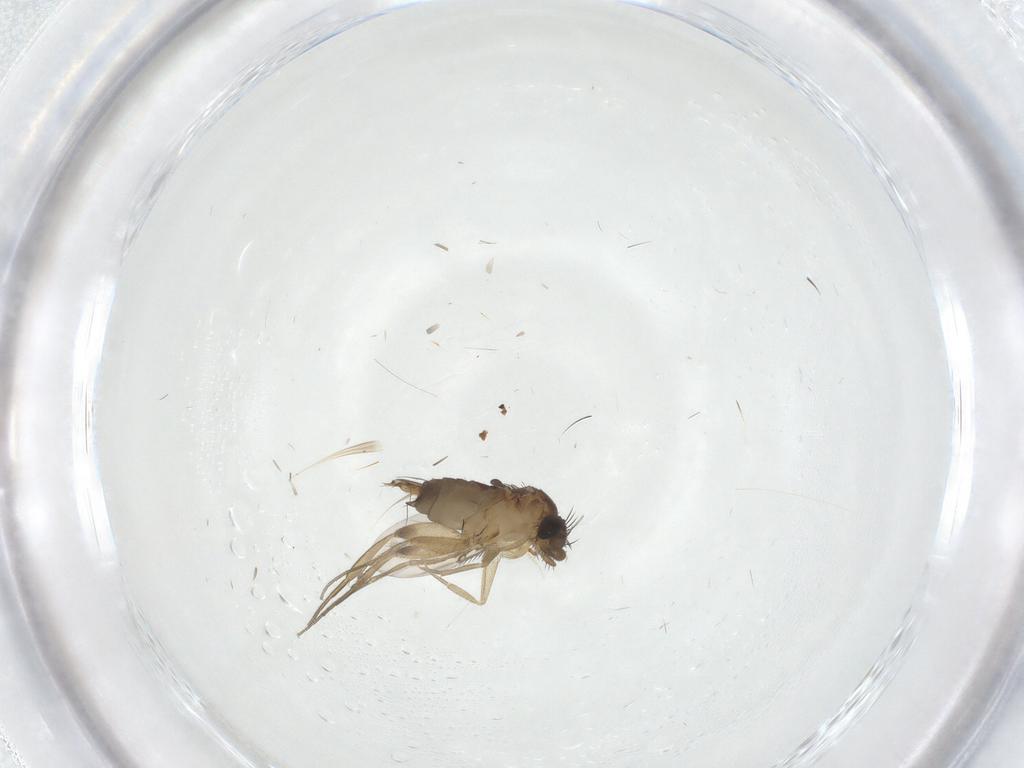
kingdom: Animalia
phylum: Arthropoda
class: Insecta
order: Diptera
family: Phoridae
